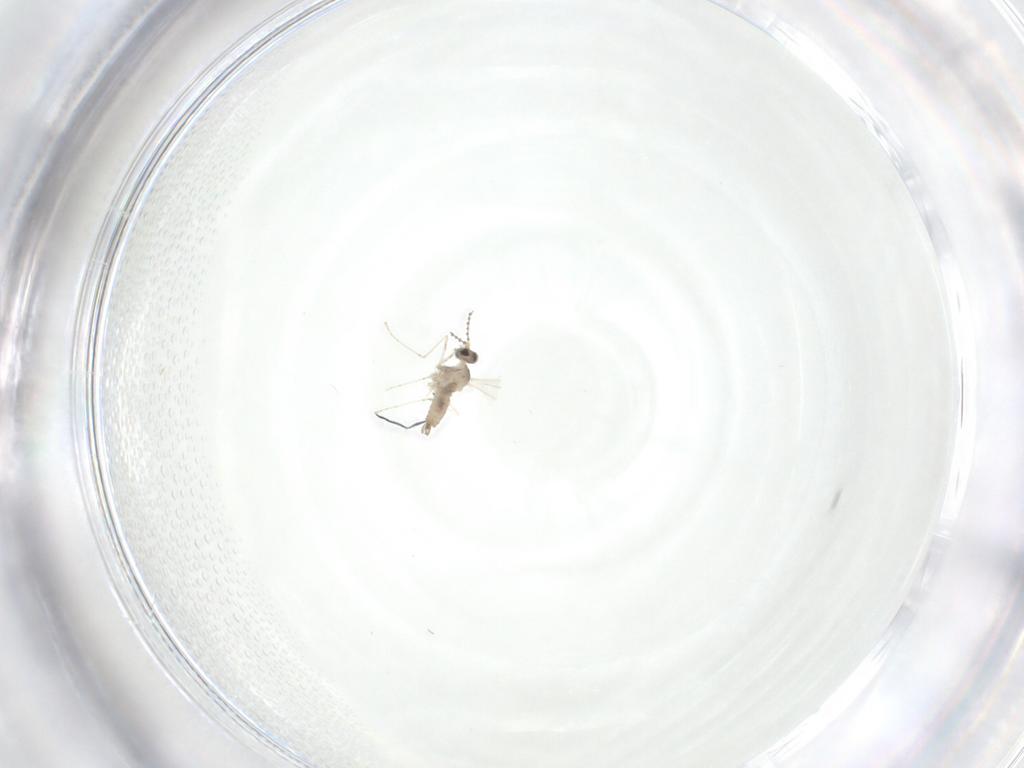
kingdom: Animalia
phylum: Arthropoda
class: Insecta
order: Diptera
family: Cecidomyiidae
